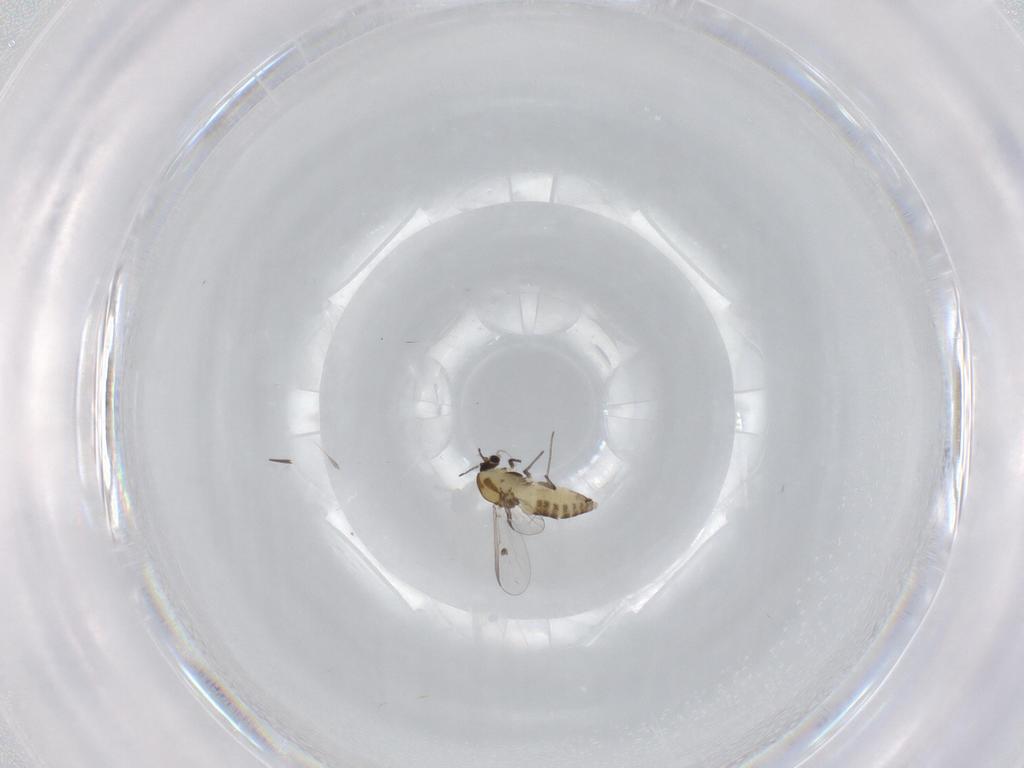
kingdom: Animalia
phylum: Arthropoda
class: Insecta
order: Diptera
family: Chironomidae
